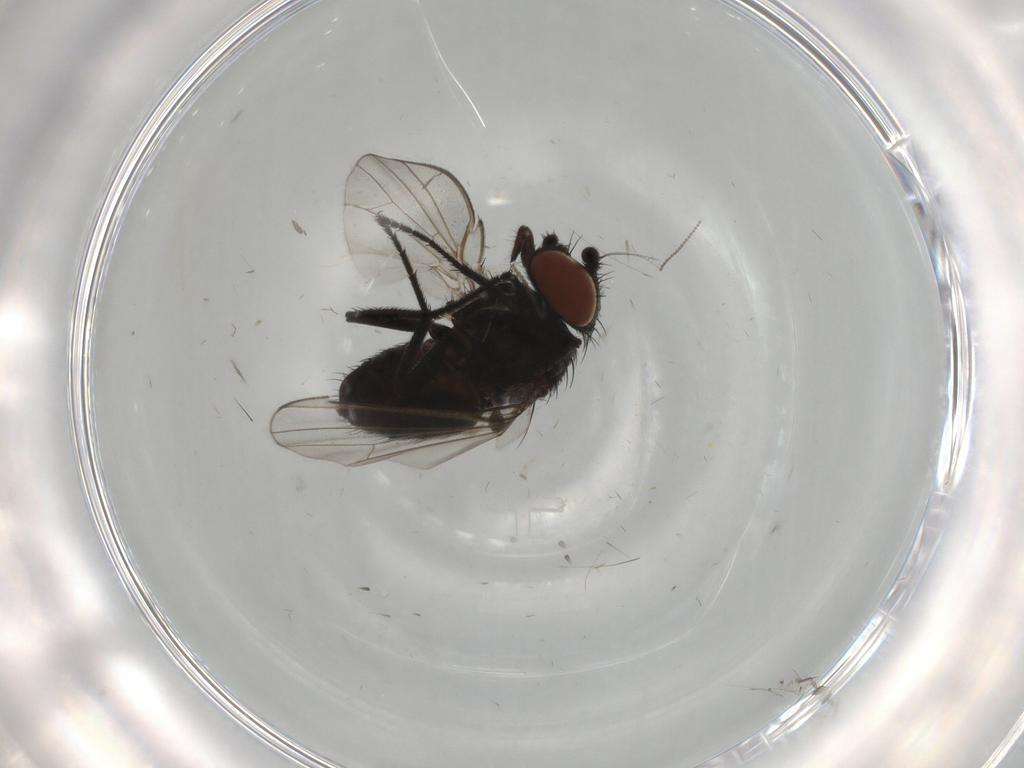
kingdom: Animalia
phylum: Arthropoda
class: Insecta
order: Diptera
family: Milichiidae
